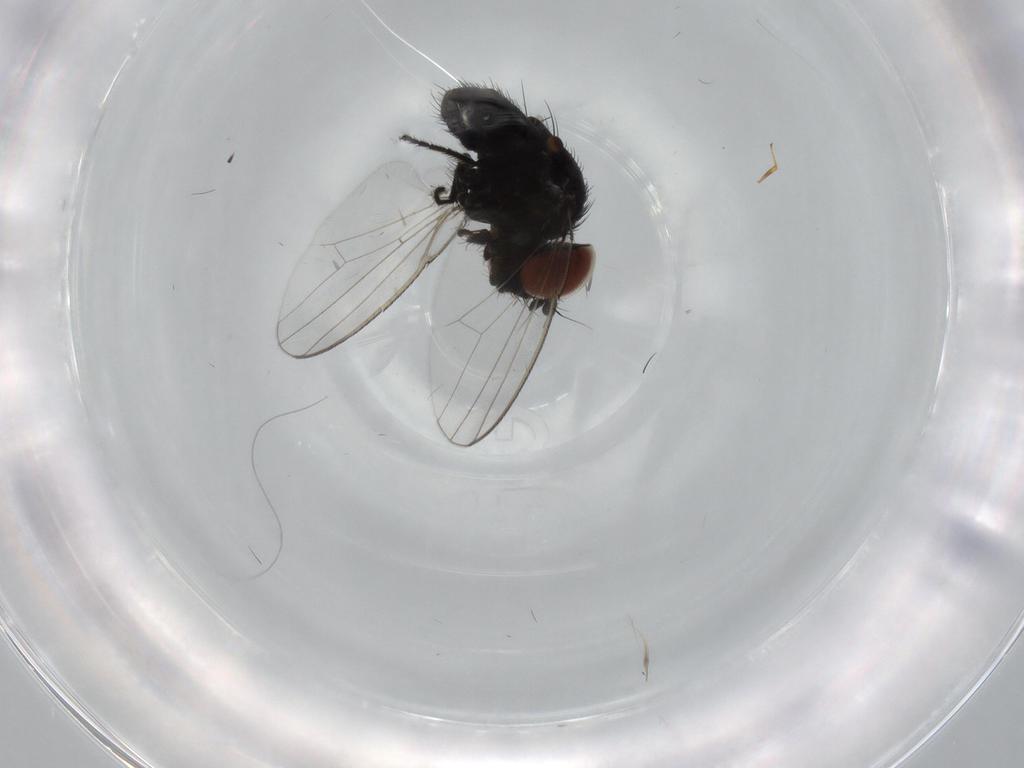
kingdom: Animalia
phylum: Arthropoda
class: Insecta
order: Diptera
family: Milichiidae
